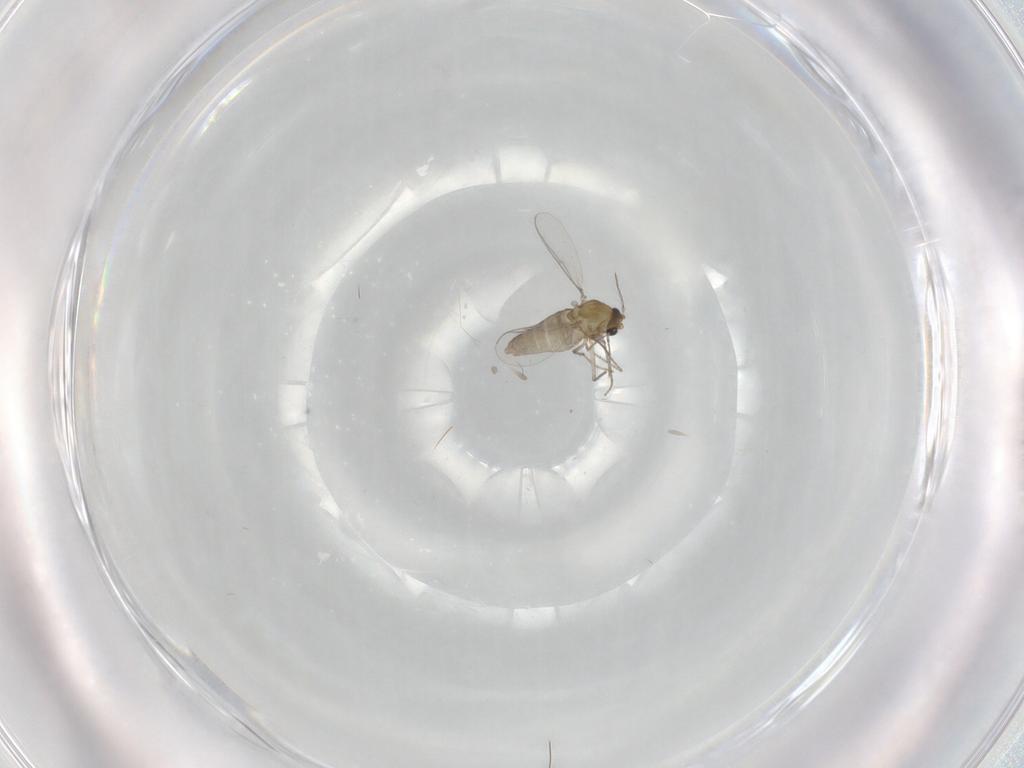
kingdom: Animalia
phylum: Arthropoda
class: Insecta
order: Diptera
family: Chironomidae
